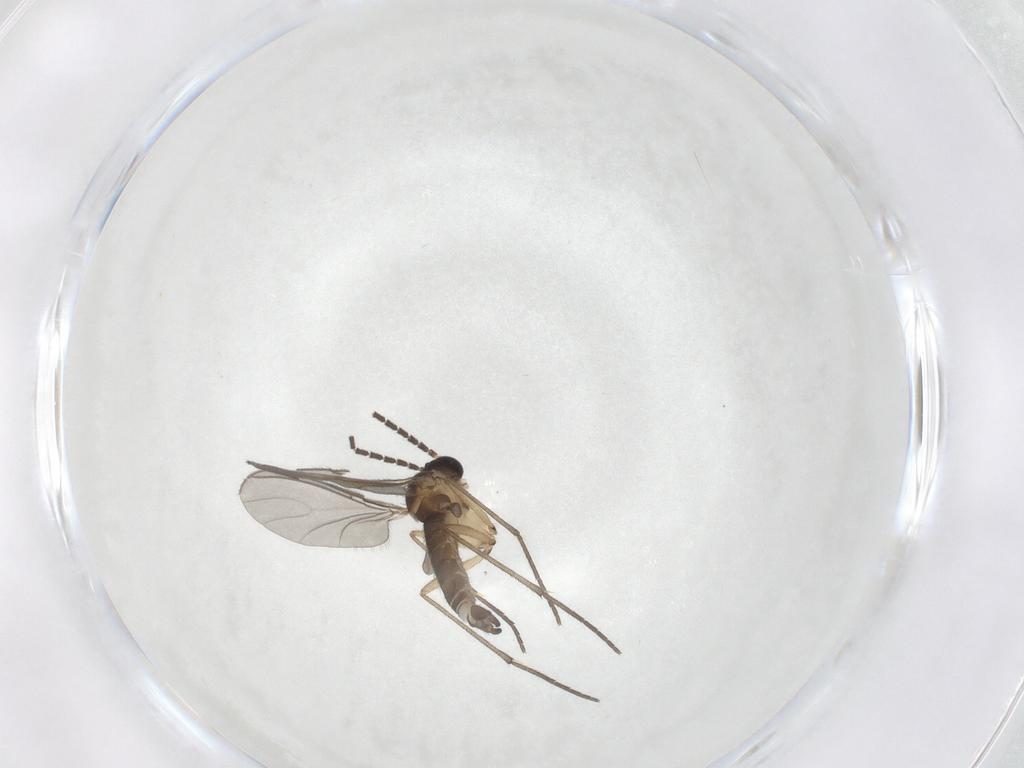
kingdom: Animalia
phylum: Arthropoda
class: Insecta
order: Diptera
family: Sciaridae
